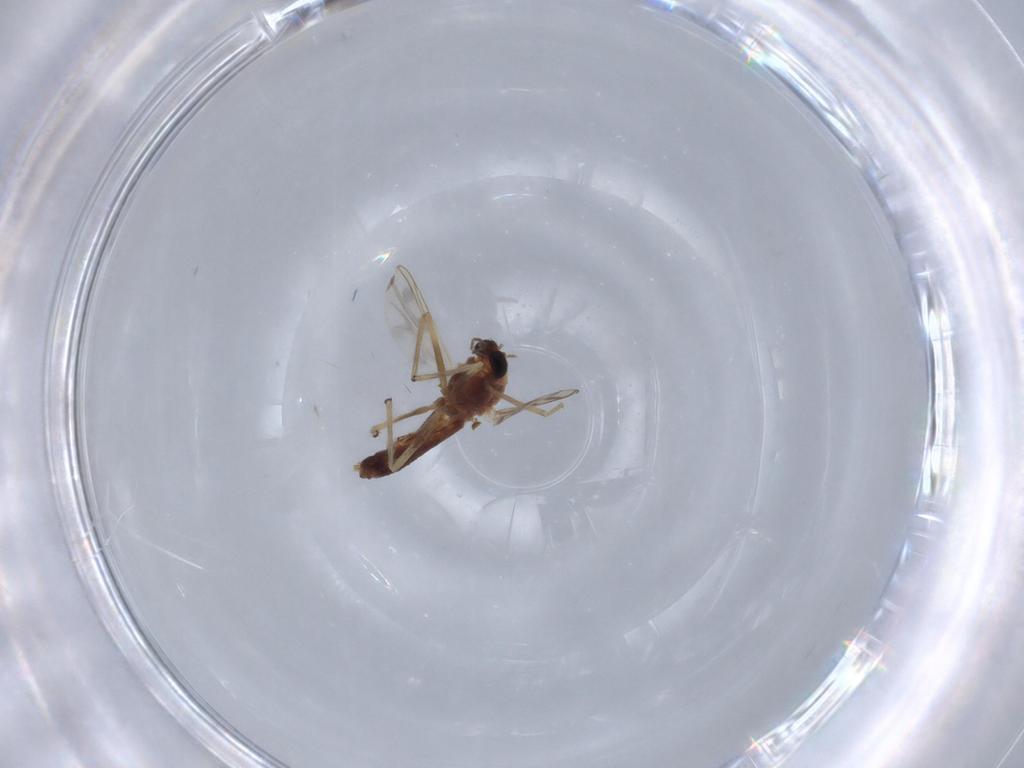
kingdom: Animalia
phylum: Arthropoda
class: Insecta
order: Diptera
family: Chironomidae
